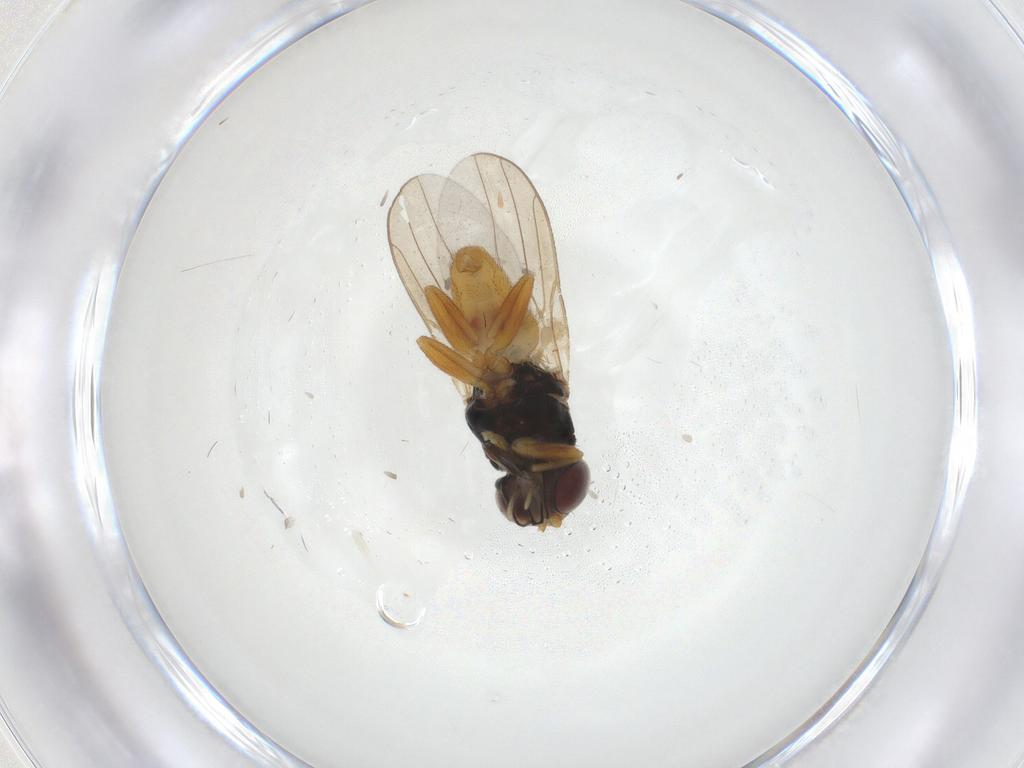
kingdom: Animalia
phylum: Arthropoda
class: Insecta
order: Diptera
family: Chloropidae
